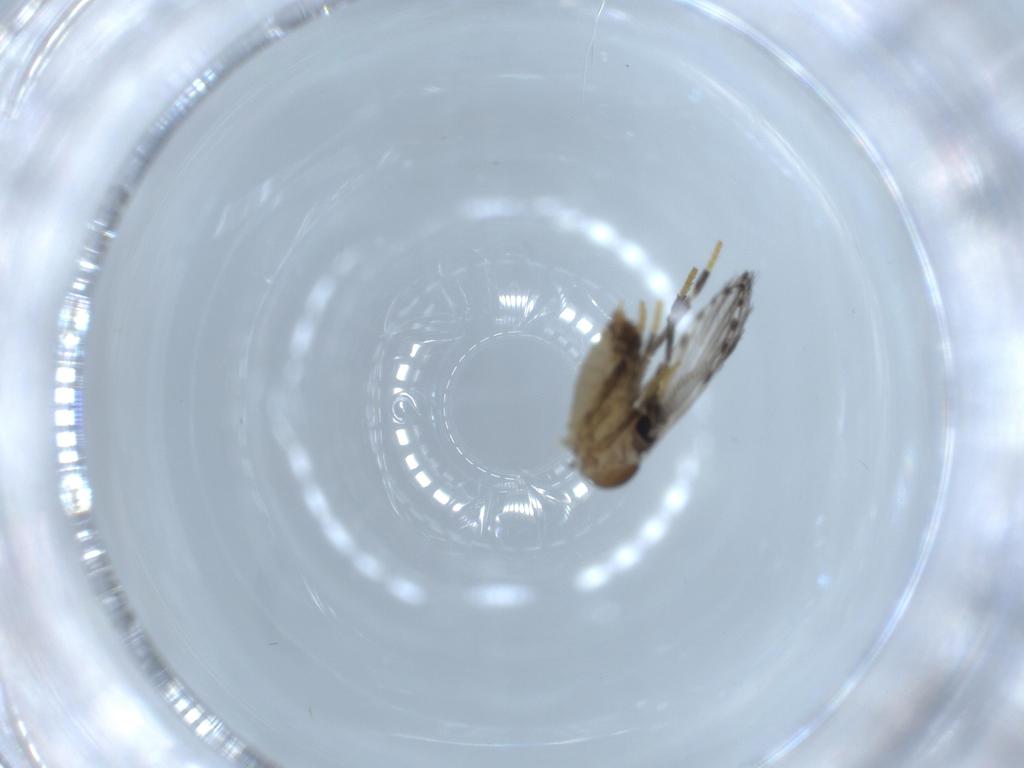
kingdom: Animalia
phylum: Arthropoda
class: Insecta
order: Diptera
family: Psychodidae
